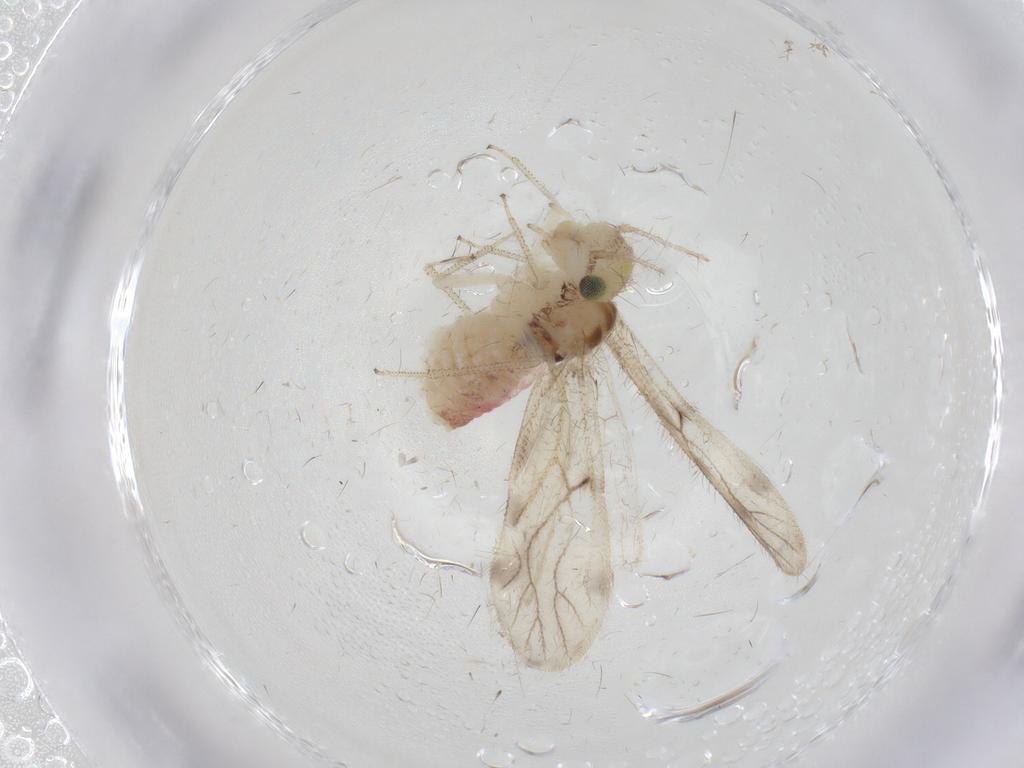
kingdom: Animalia
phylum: Arthropoda
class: Insecta
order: Psocodea
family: Pseudocaeciliidae
